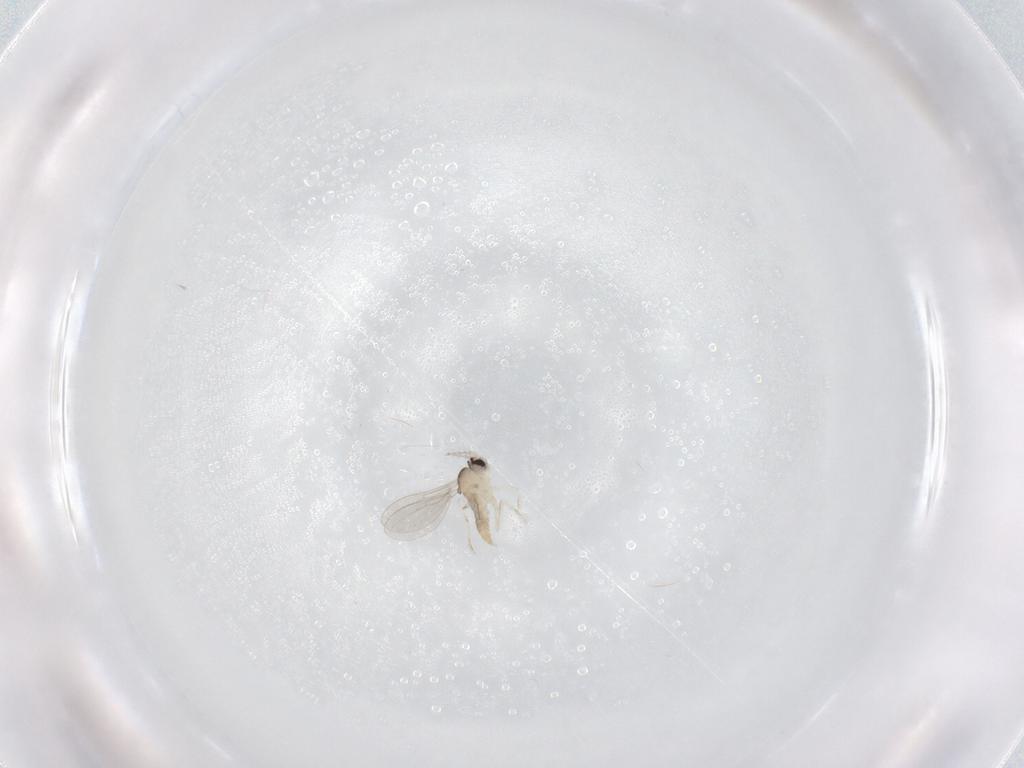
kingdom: Animalia
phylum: Arthropoda
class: Insecta
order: Diptera
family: Cecidomyiidae
